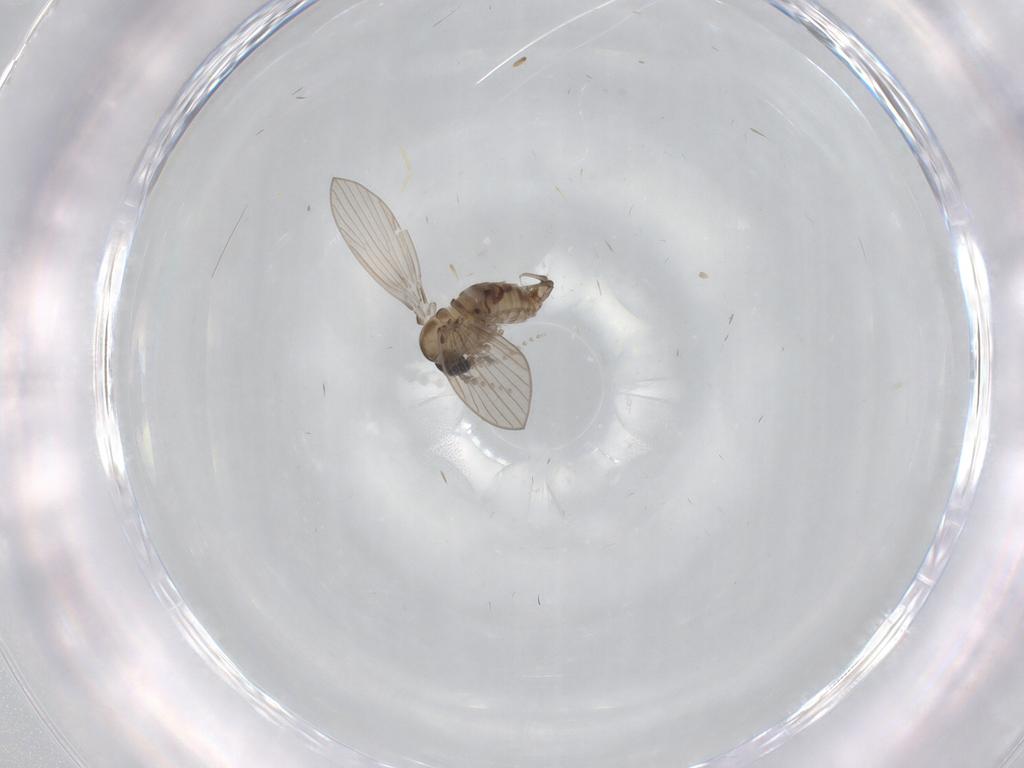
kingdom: Animalia
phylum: Arthropoda
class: Insecta
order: Diptera
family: Psychodidae
